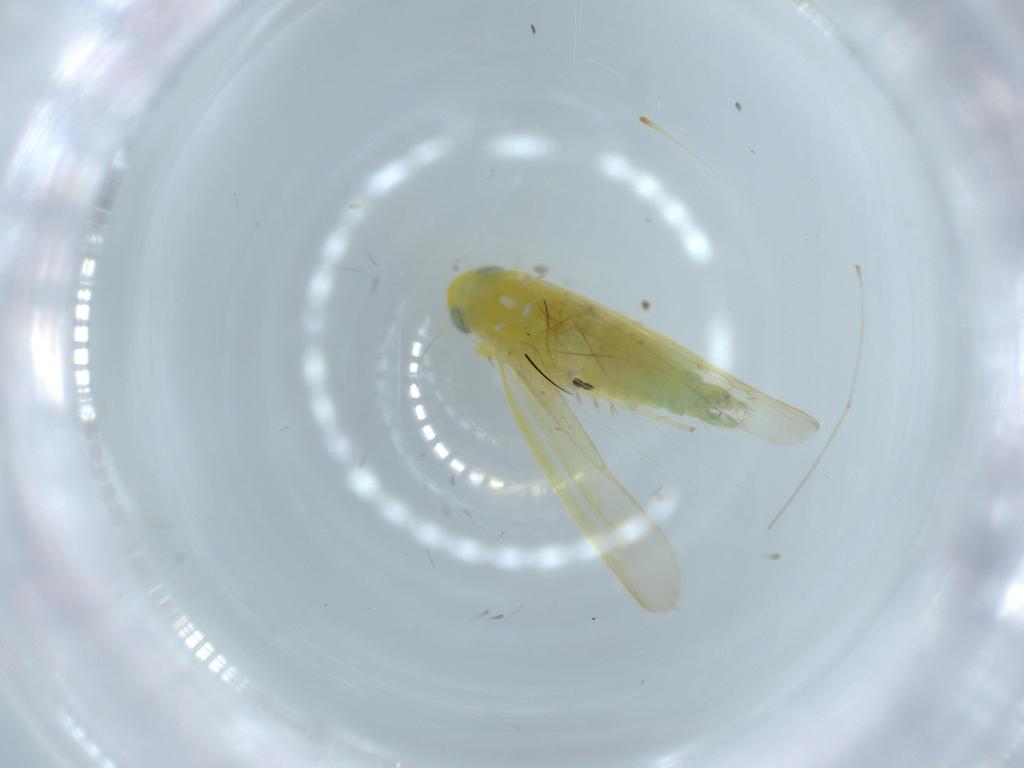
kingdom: Animalia
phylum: Arthropoda
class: Insecta
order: Hemiptera
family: Cicadellidae
